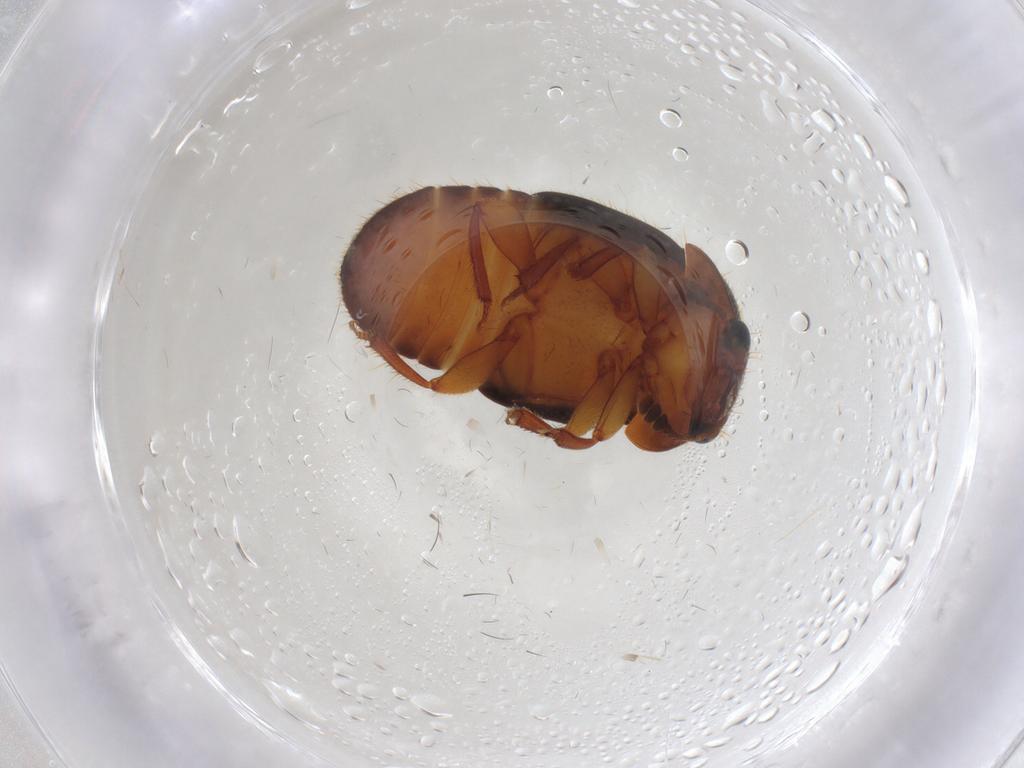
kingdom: Animalia
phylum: Arthropoda
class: Insecta
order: Coleoptera
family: Nitidulidae
